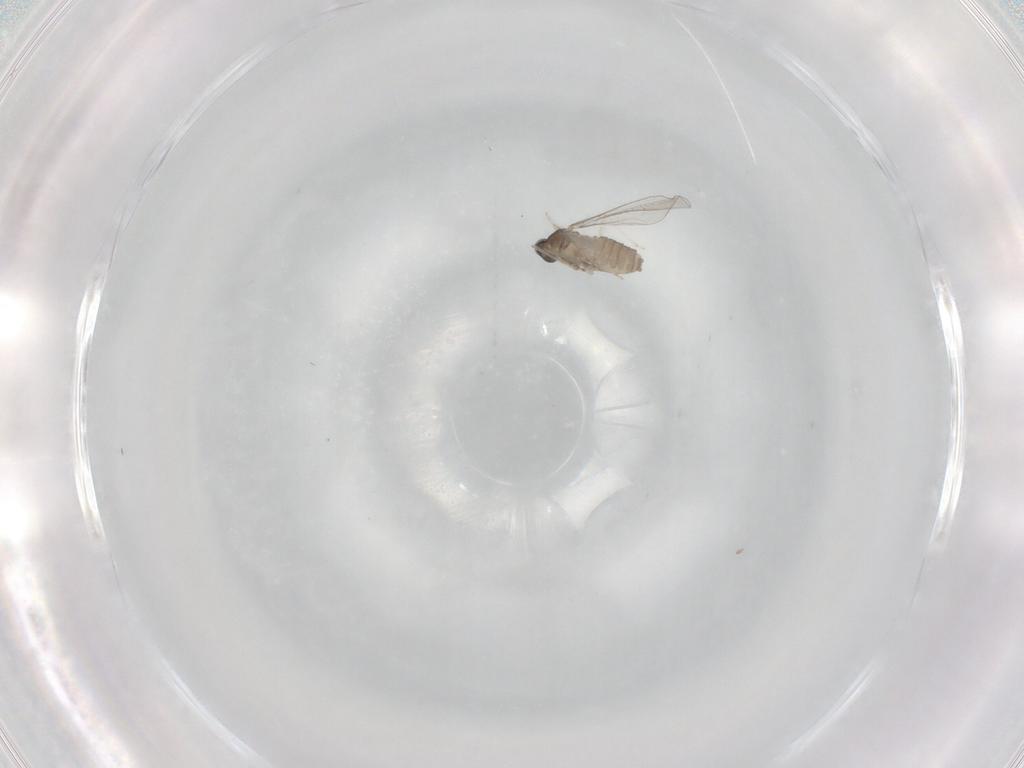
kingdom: Animalia
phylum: Arthropoda
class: Insecta
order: Diptera
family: Cecidomyiidae
